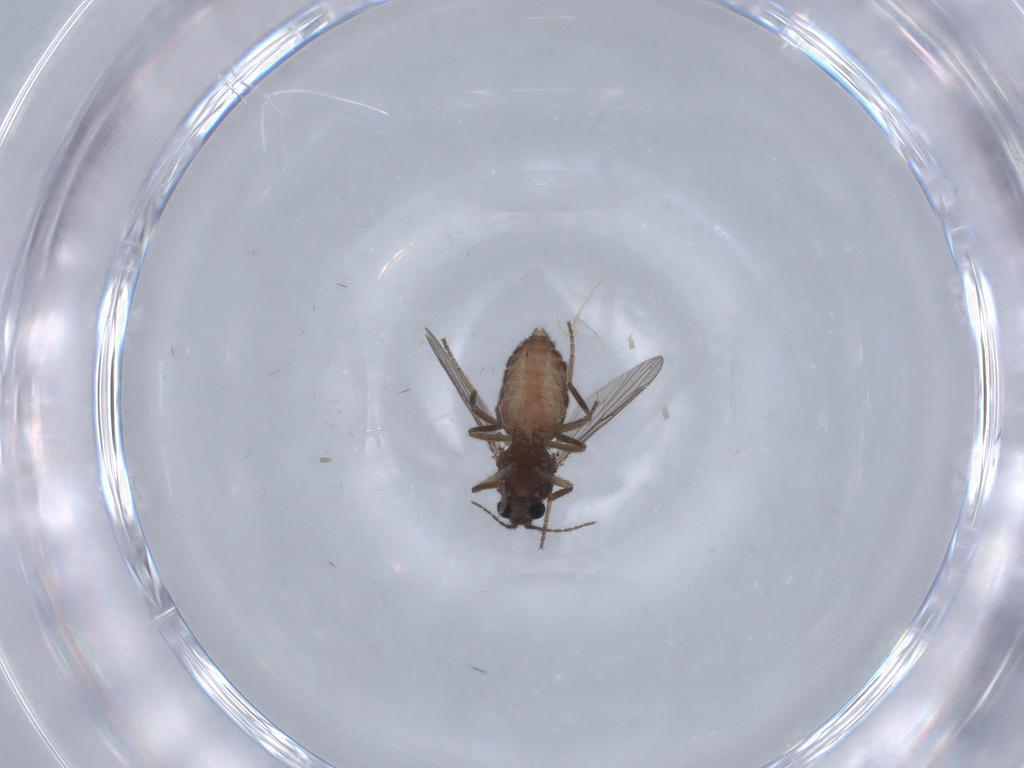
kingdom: Animalia
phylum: Arthropoda
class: Insecta
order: Diptera
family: Ceratopogonidae
